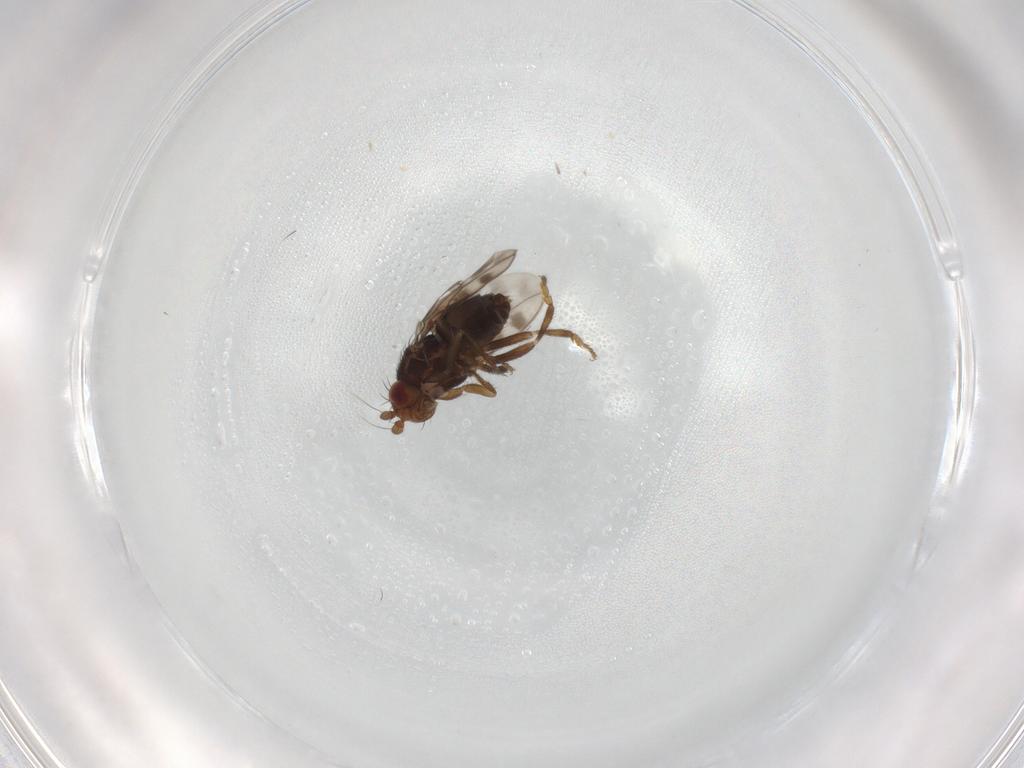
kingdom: Animalia
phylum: Arthropoda
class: Insecta
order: Diptera
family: Sphaeroceridae
